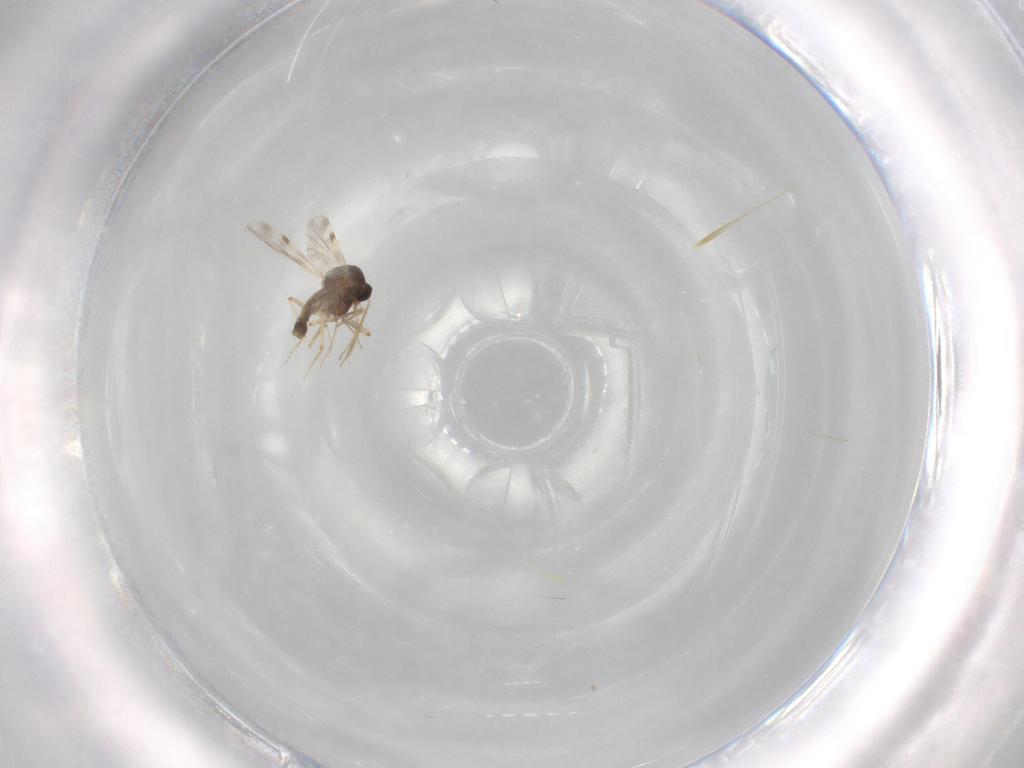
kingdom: Animalia
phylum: Arthropoda
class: Insecta
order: Diptera
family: Ceratopogonidae
